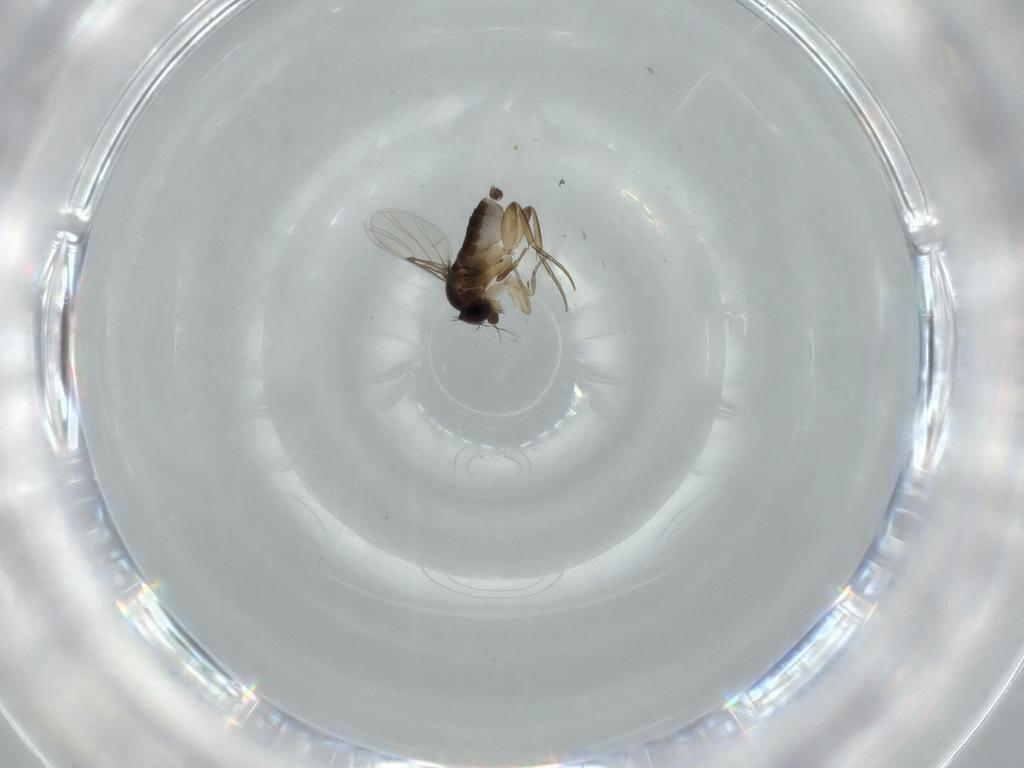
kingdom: Animalia
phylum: Arthropoda
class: Insecta
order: Diptera
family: Phoridae
